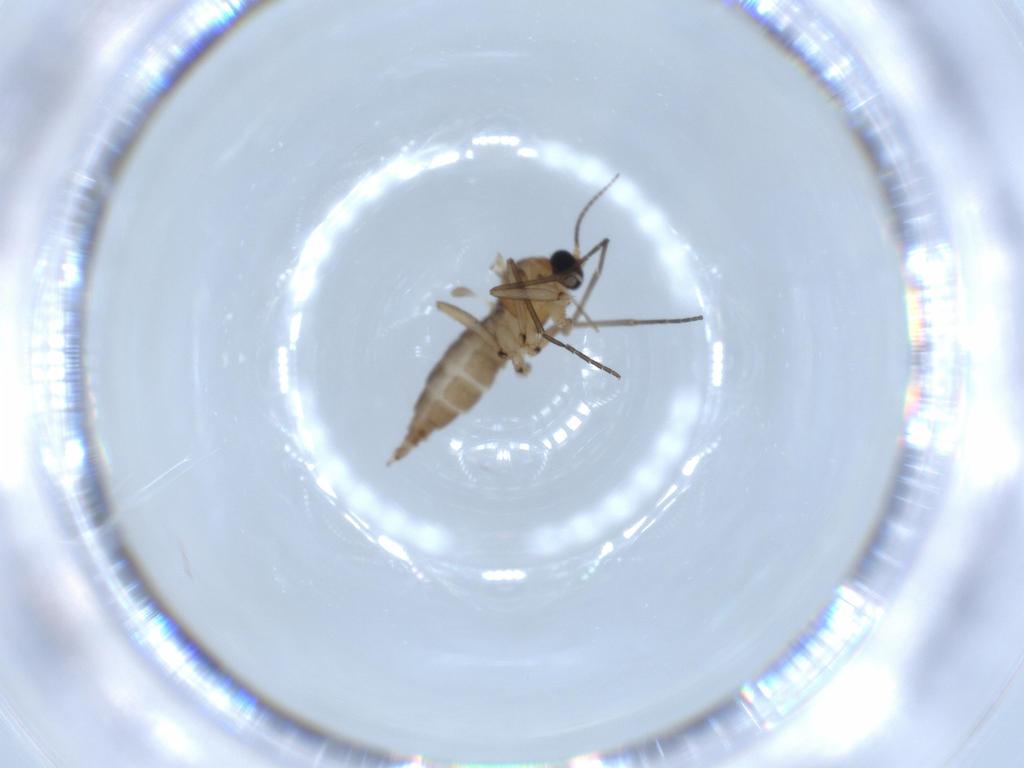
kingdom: Animalia
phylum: Arthropoda
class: Insecta
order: Diptera
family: Chironomidae
